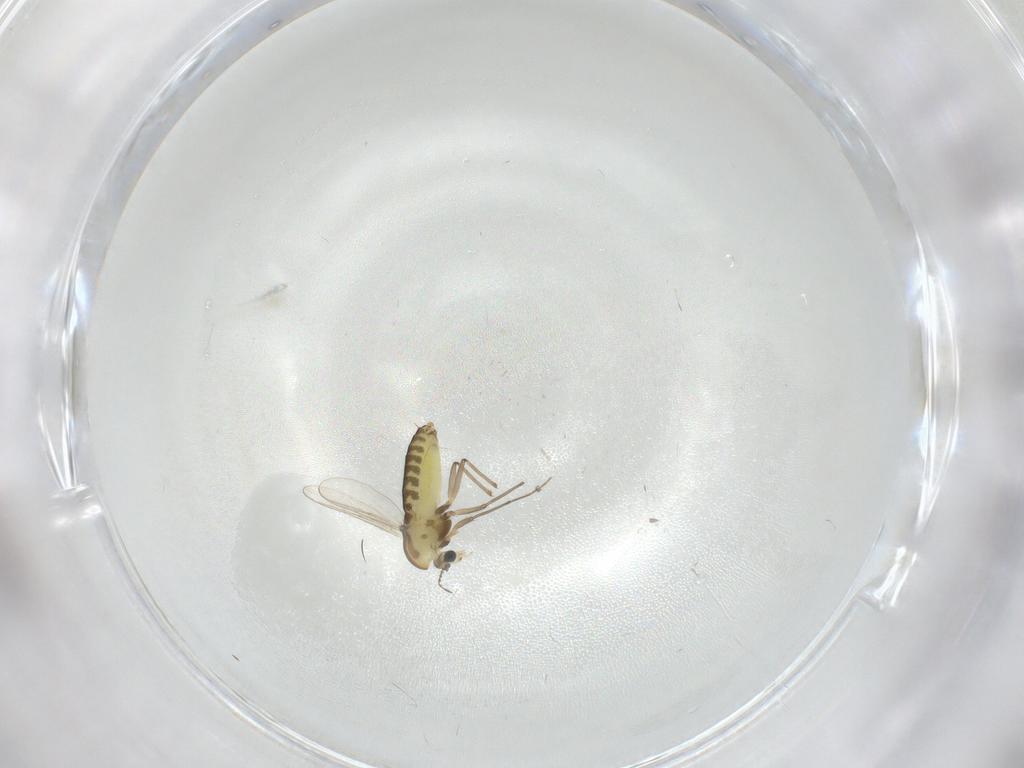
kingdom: Animalia
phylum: Arthropoda
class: Insecta
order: Diptera
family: Chironomidae
